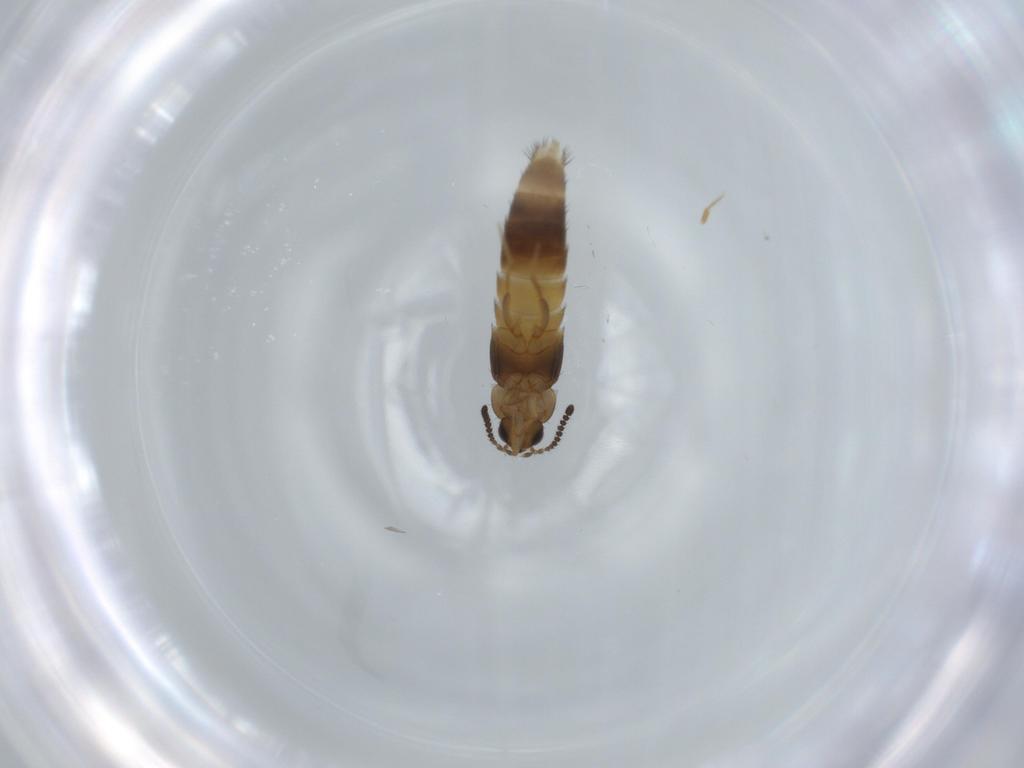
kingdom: Animalia
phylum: Arthropoda
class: Insecta
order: Coleoptera
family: Staphylinidae
